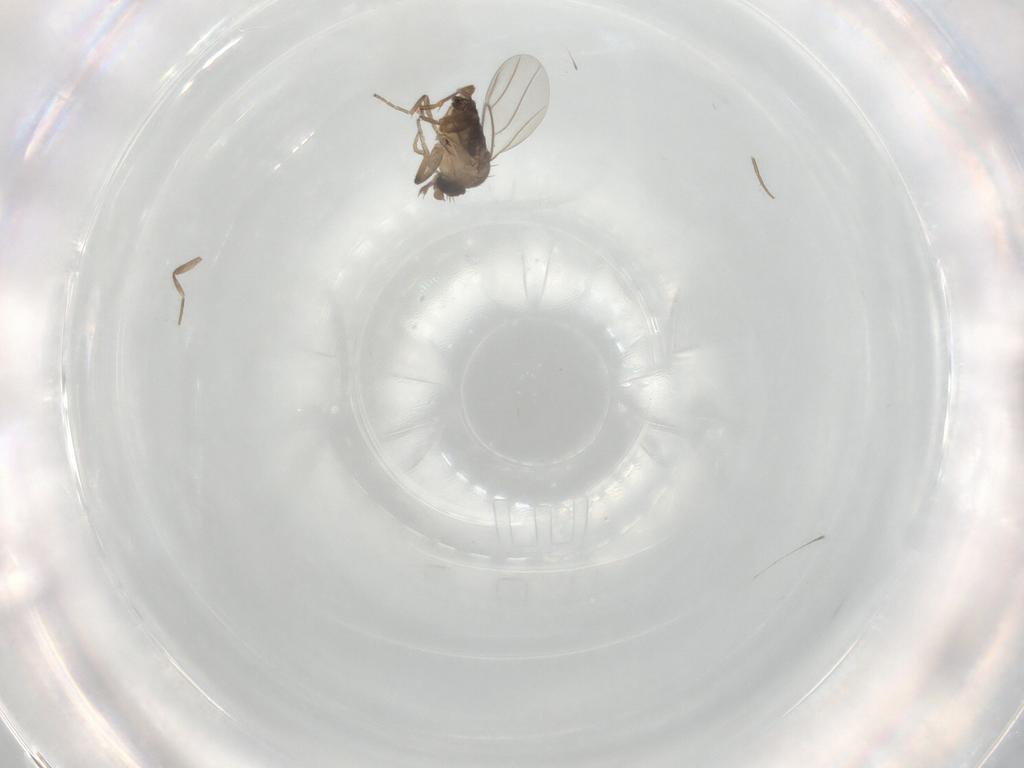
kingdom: Animalia
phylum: Arthropoda
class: Insecta
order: Diptera
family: Phoridae
